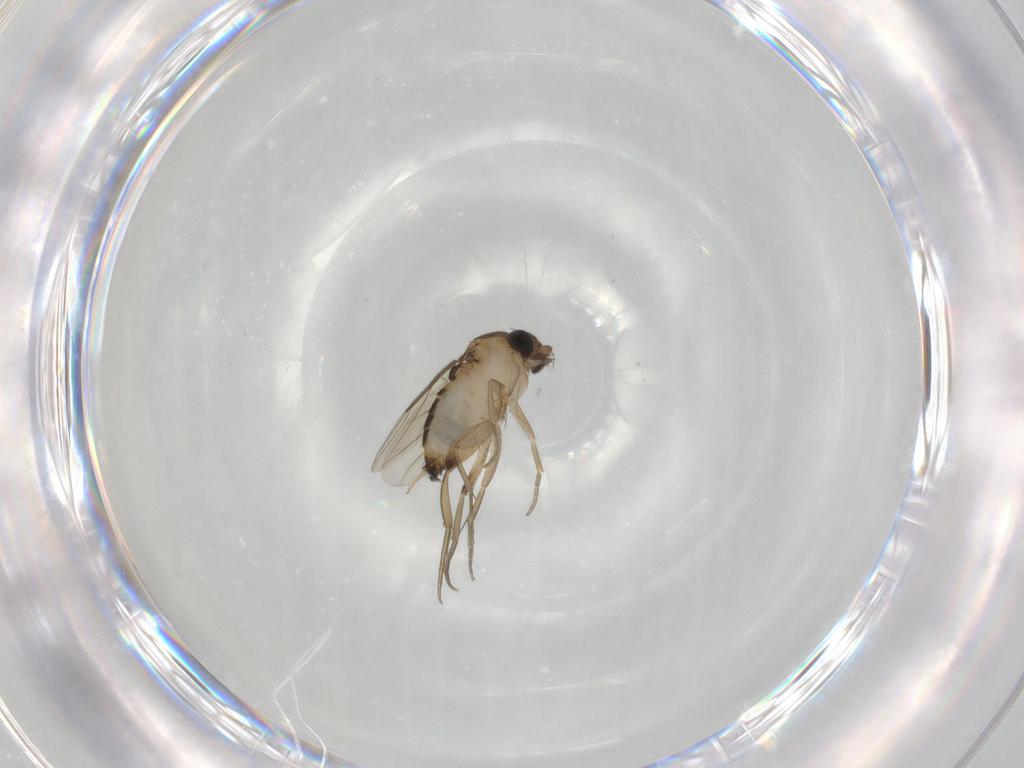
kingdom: Animalia
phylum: Arthropoda
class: Insecta
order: Diptera
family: Phoridae
